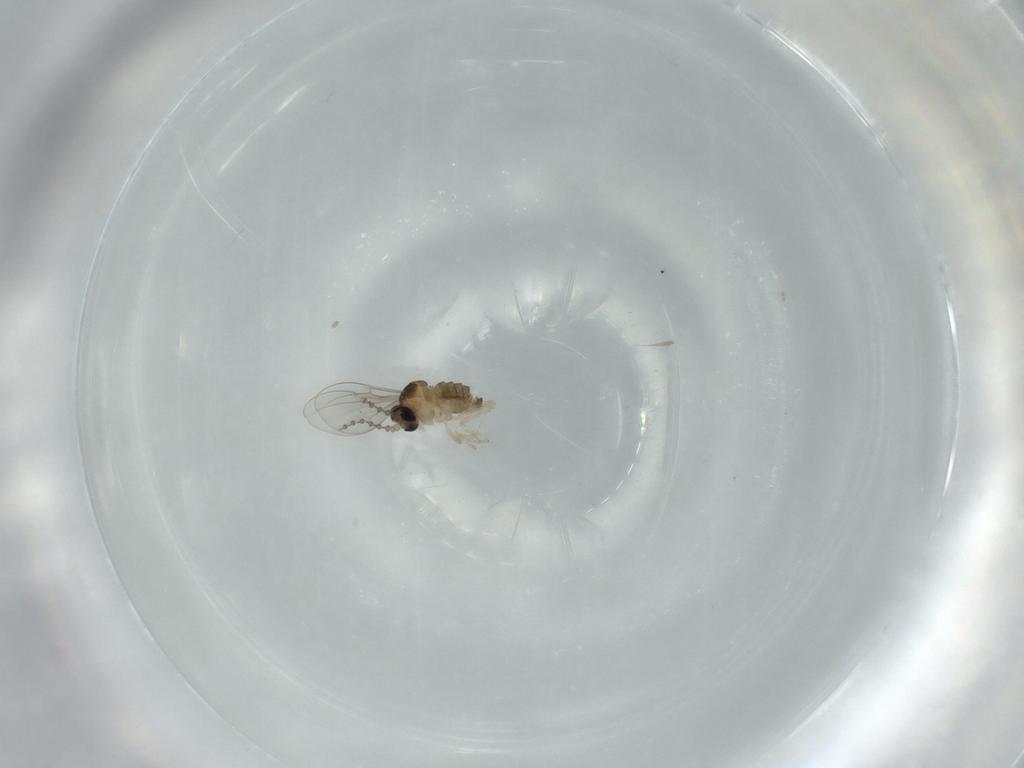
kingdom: Animalia
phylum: Arthropoda
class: Insecta
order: Diptera
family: Cecidomyiidae
